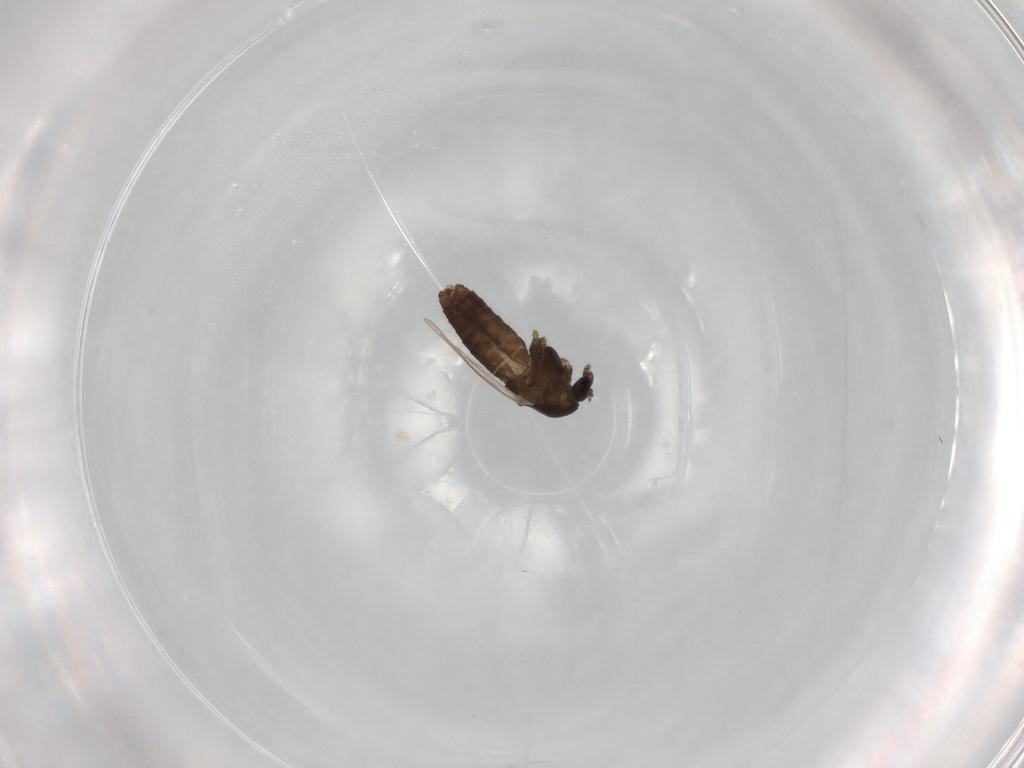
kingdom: Animalia
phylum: Arthropoda
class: Insecta
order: Diptera
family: Chironomidae
